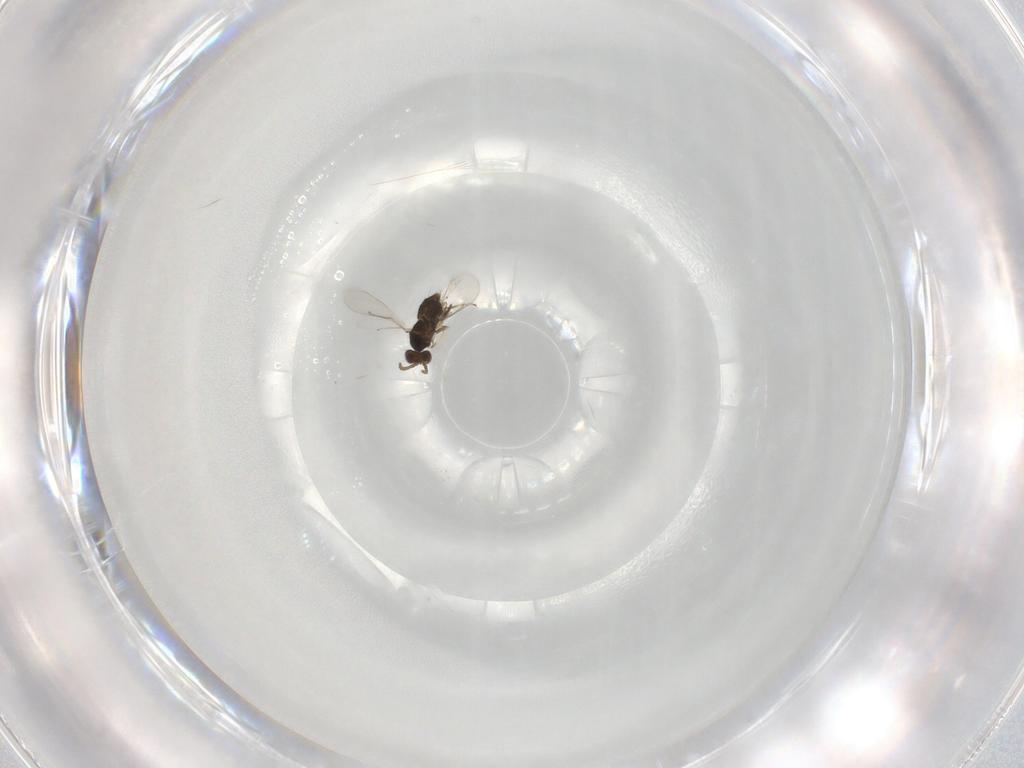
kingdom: Animalia
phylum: Arthropoda
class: Insecta
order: Hymenoptera
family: Aphelinidae
